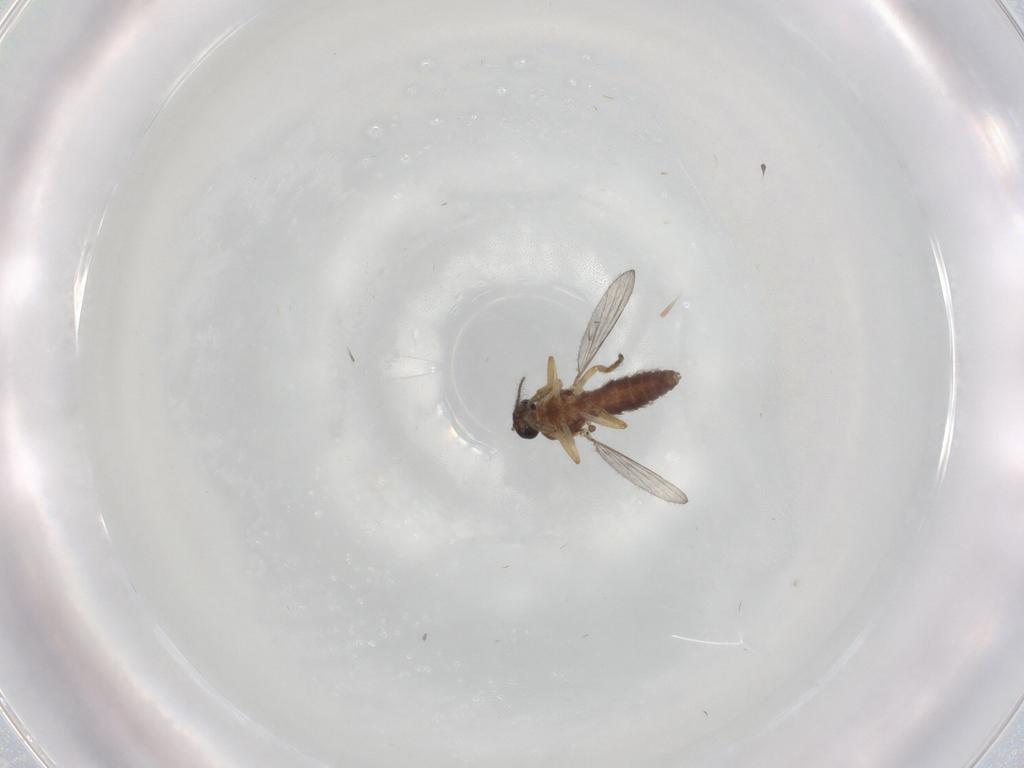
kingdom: Animalia
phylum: Arthropoda
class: Insecta
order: Diptera
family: Ceratopogonidae
